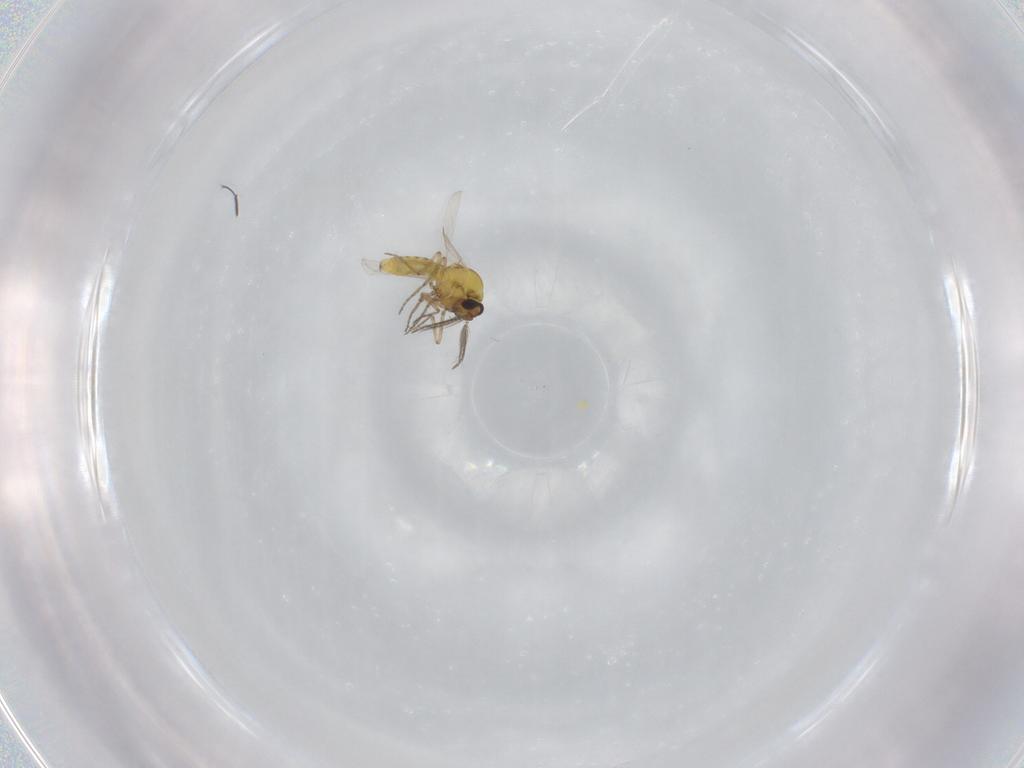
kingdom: Animalia
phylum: Arthropoda
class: Insecta
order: Diptera
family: Ceratopogonidae
